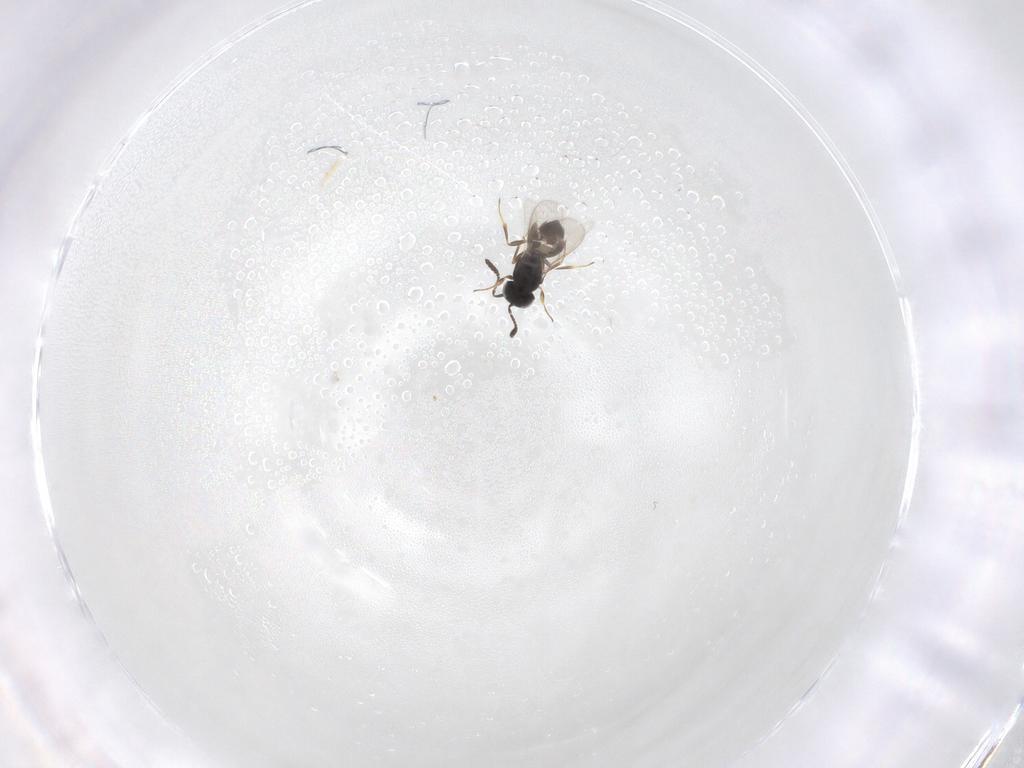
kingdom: Animalia
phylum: Arthropoda
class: Insecta
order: Hymenoptera
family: Scelionidae
